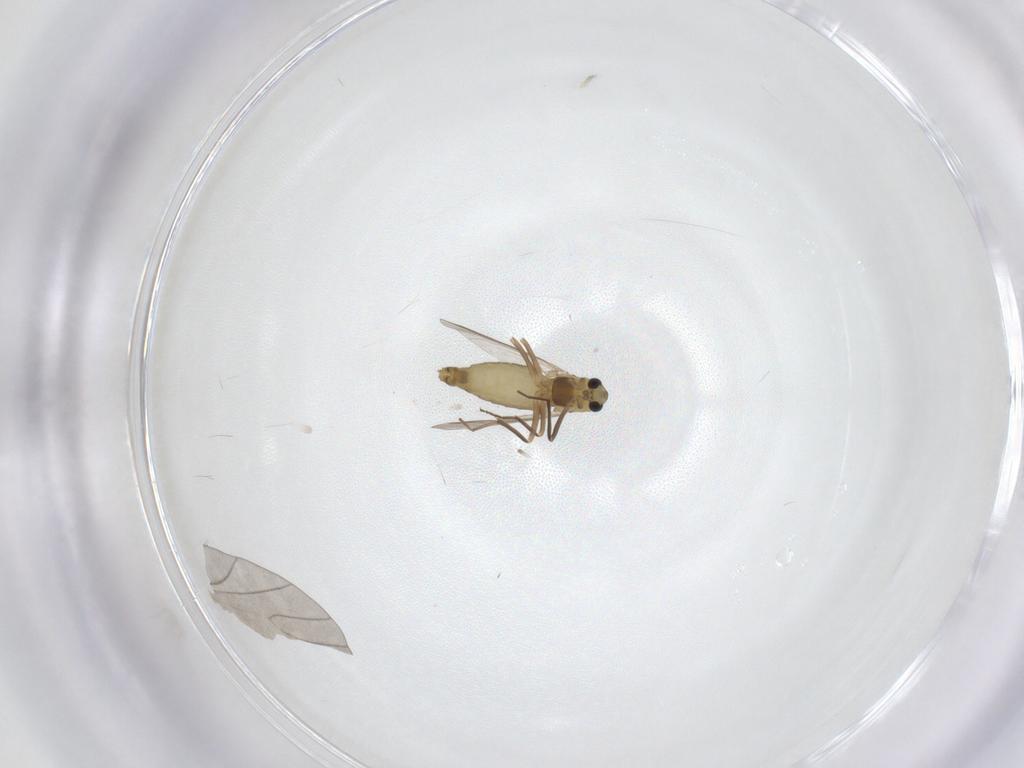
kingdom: Animalia
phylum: Arthropoda
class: Insecta
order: Diptera
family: Chironomidae
